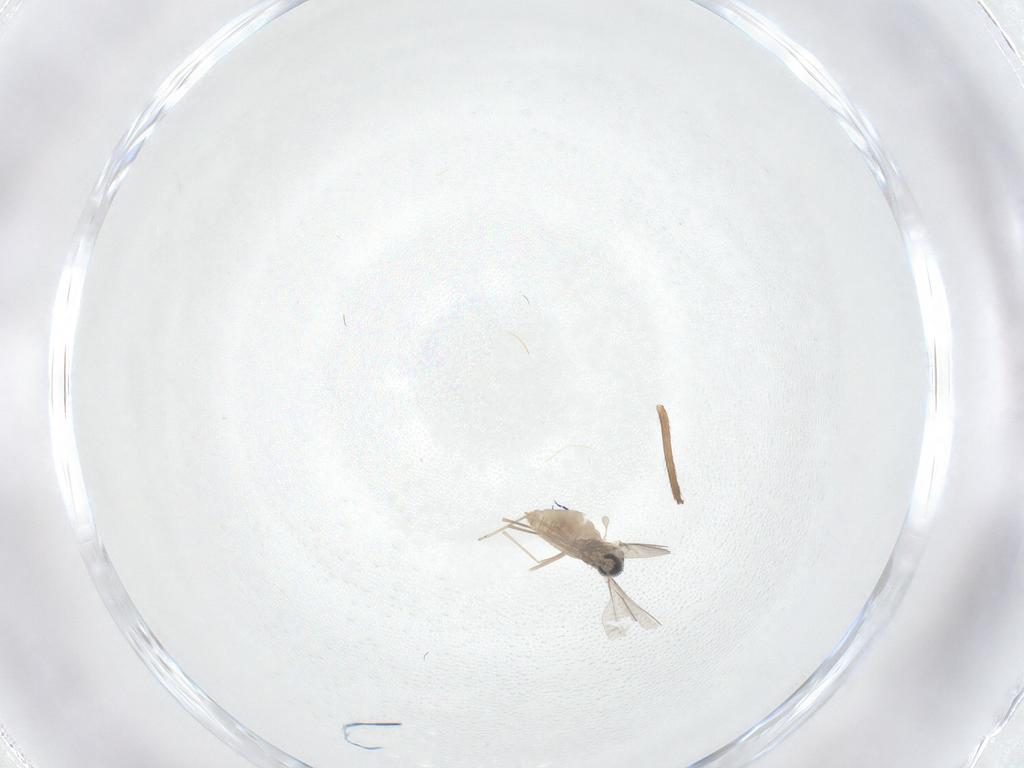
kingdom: Animalia
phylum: Arthropoda
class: Insecta
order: Diptera
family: Cecidomyiidae
